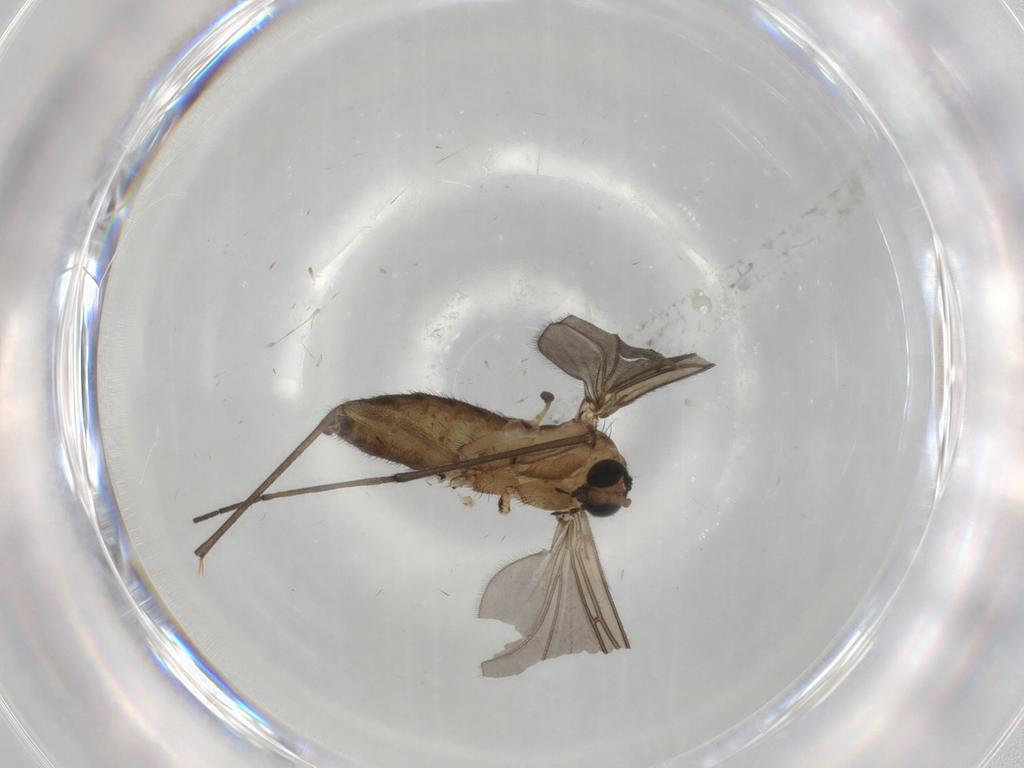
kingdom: Animalia
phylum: Arthropoda
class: Insecta
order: Diptera
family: Sciaridae
